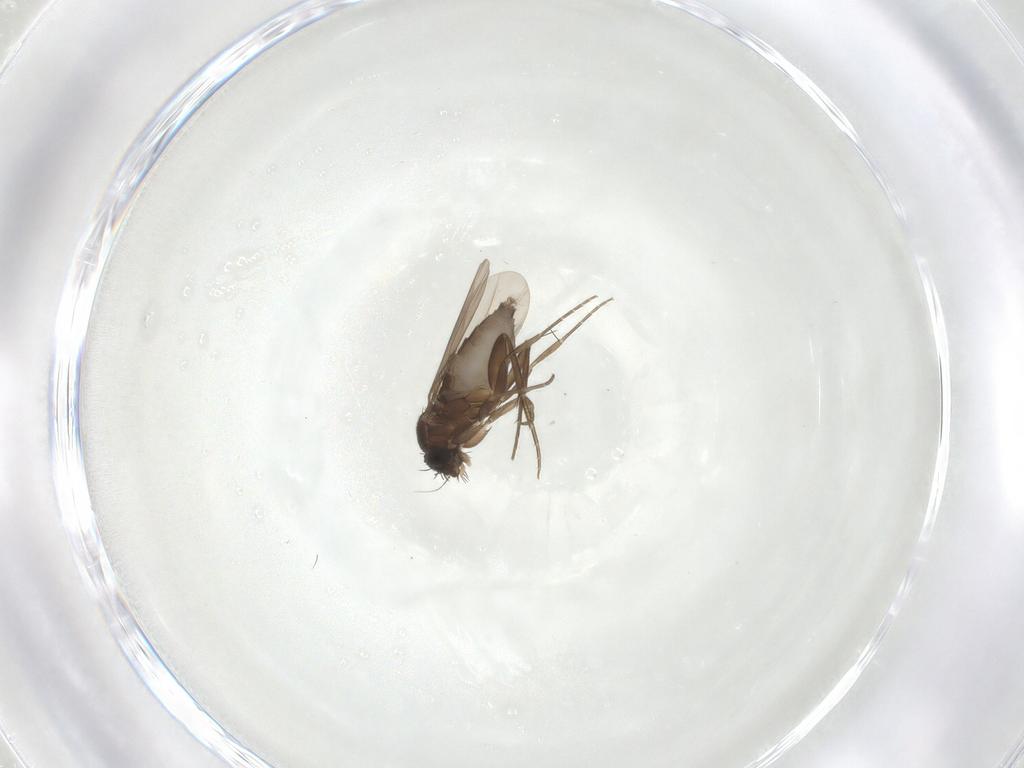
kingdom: Animalia
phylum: Arthropoda
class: Insecta
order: Diptera
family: Phoridae
